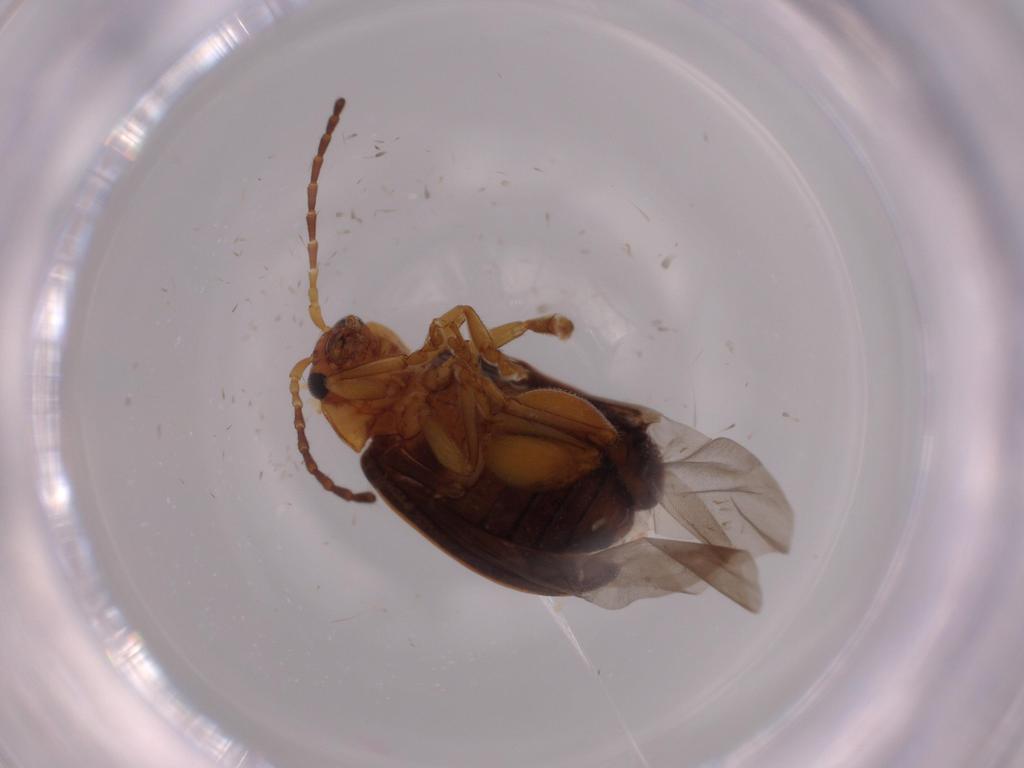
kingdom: Animalia
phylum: Arthropoda
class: Insecta
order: Coleoptera
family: Chrysomelidae
